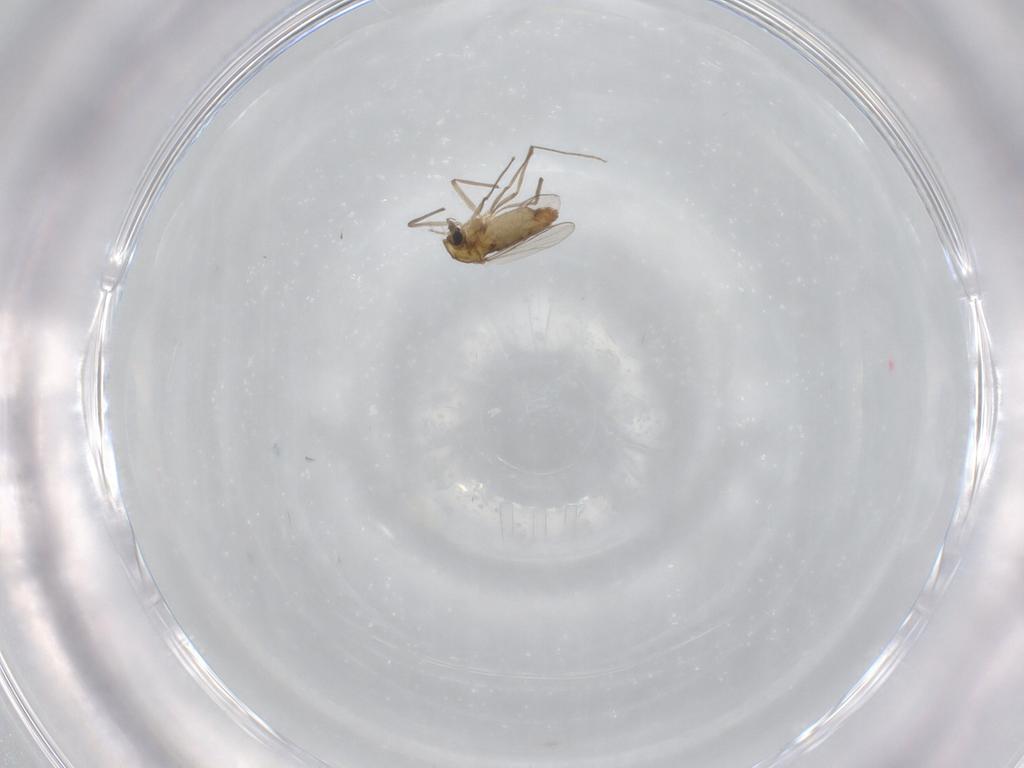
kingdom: Animalia
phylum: Arthropoda
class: Insecta
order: Diptera
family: Chironomidae
